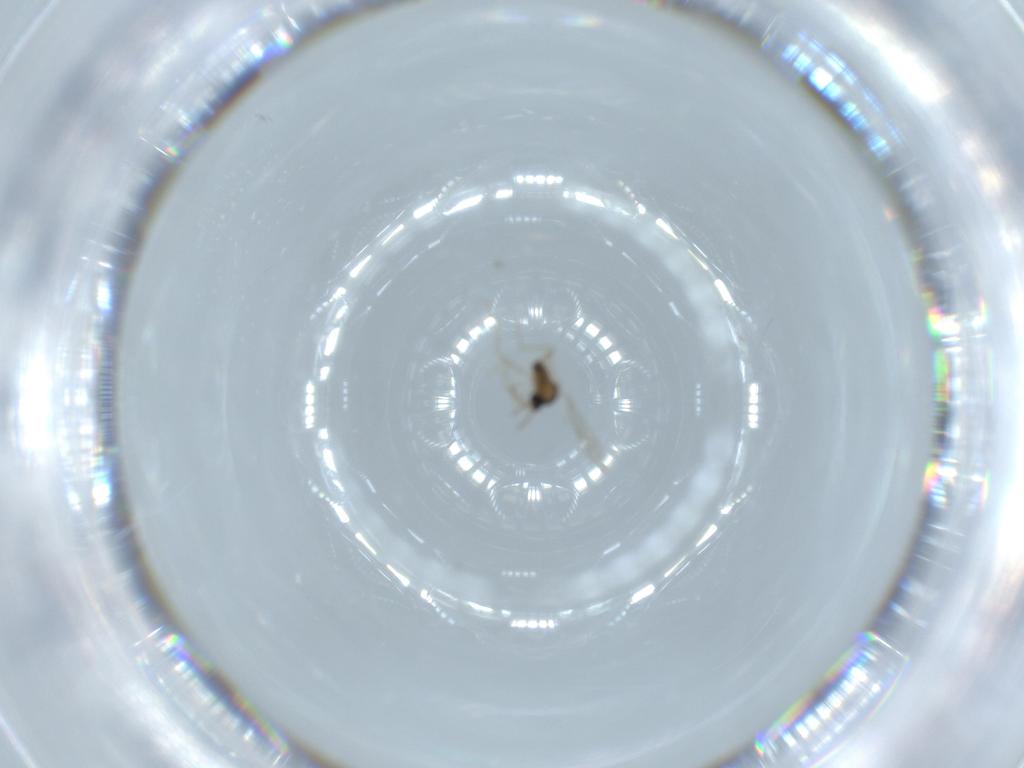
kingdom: Animalia
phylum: Arthropoda
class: Insecta
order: Diptera
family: Cecidomyiidae
